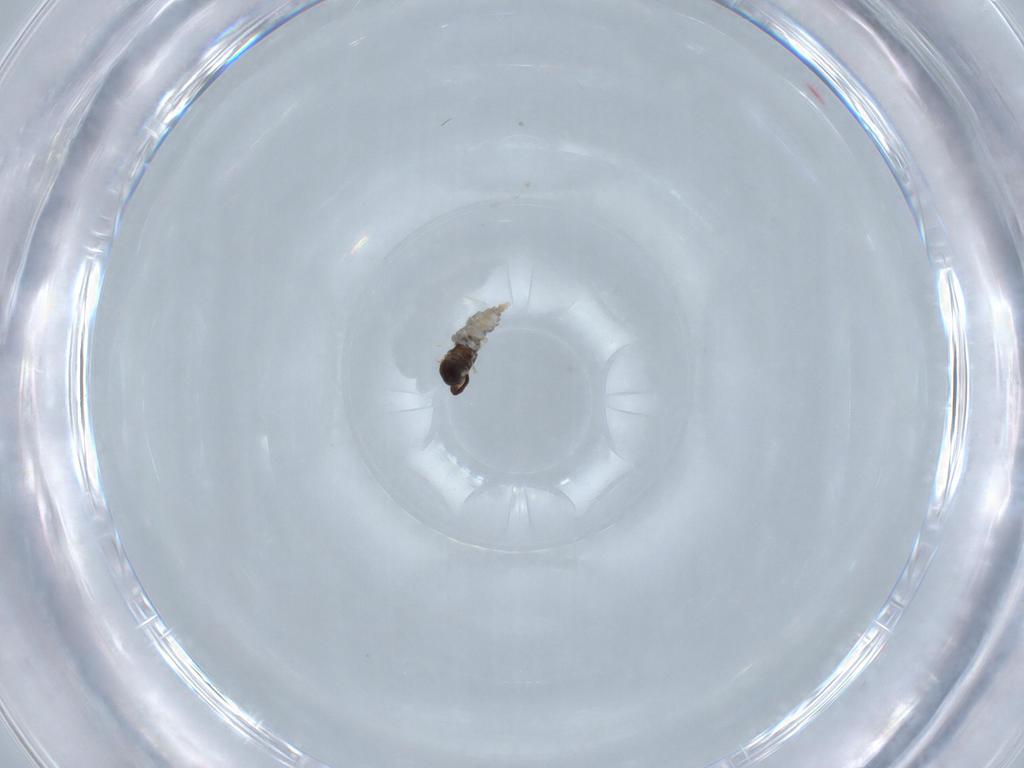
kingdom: Animalia
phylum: Arthropoda
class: Insecta
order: Diptera
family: Cecidomyiidae
